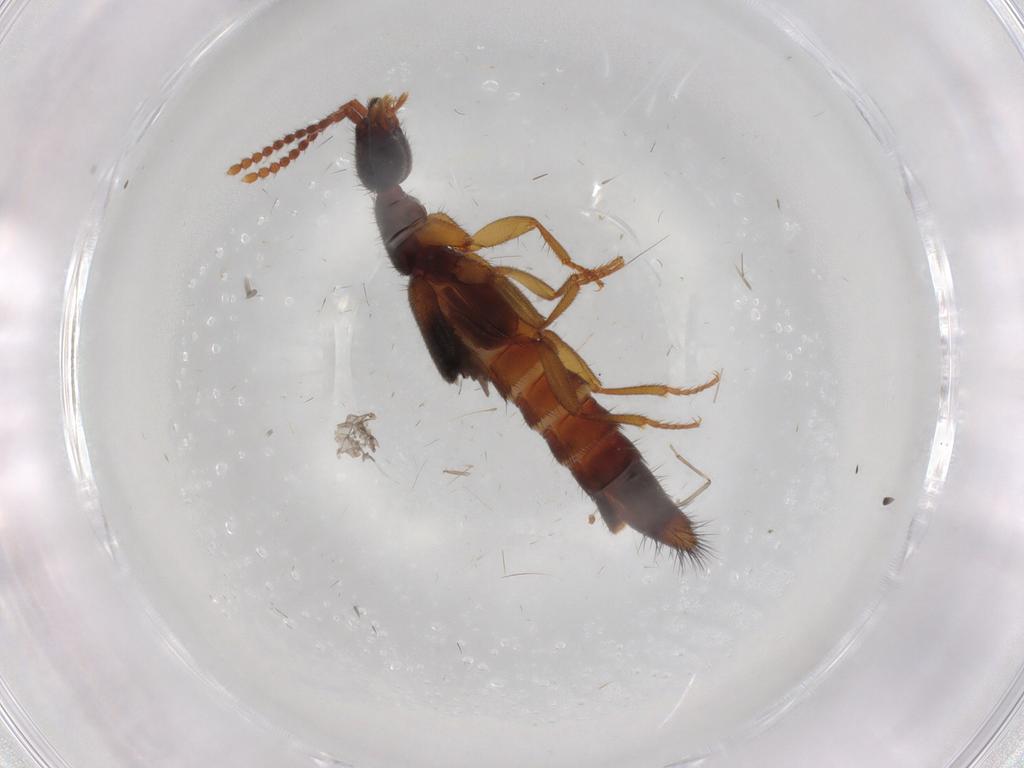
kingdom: Animalia
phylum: Arthropoda
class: Insecta
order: Coleoptera
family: Staphylinidae
